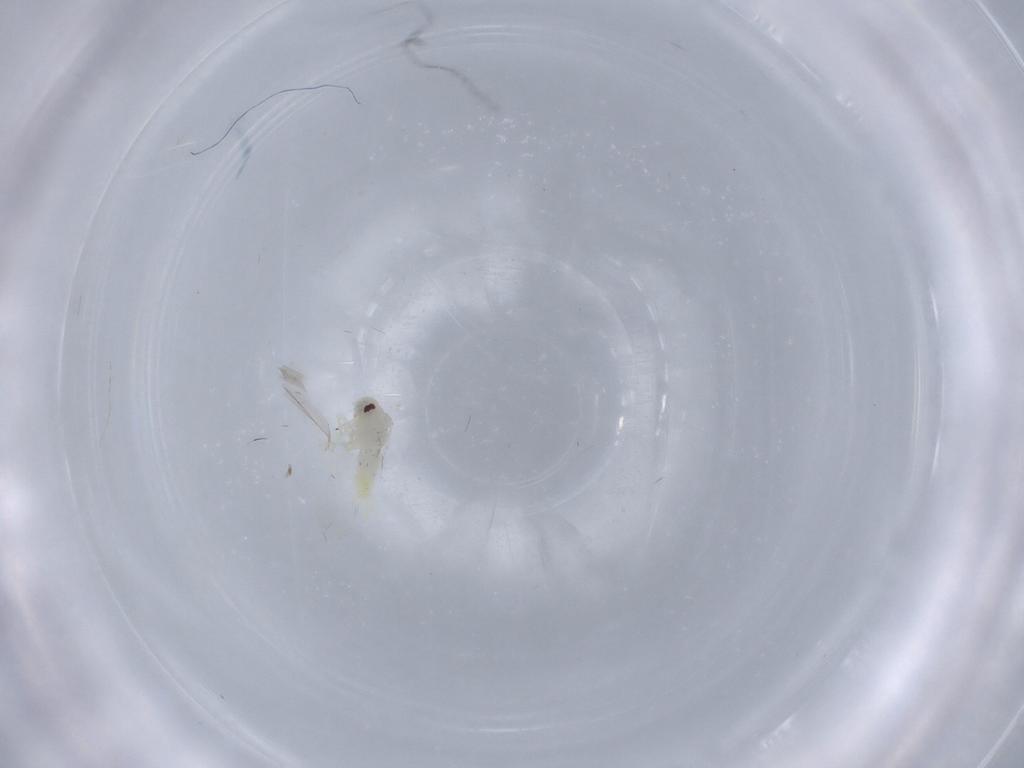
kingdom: Animalia
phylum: Arthropoda
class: Insecta
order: Hemiptera
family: Aleyrodidae
